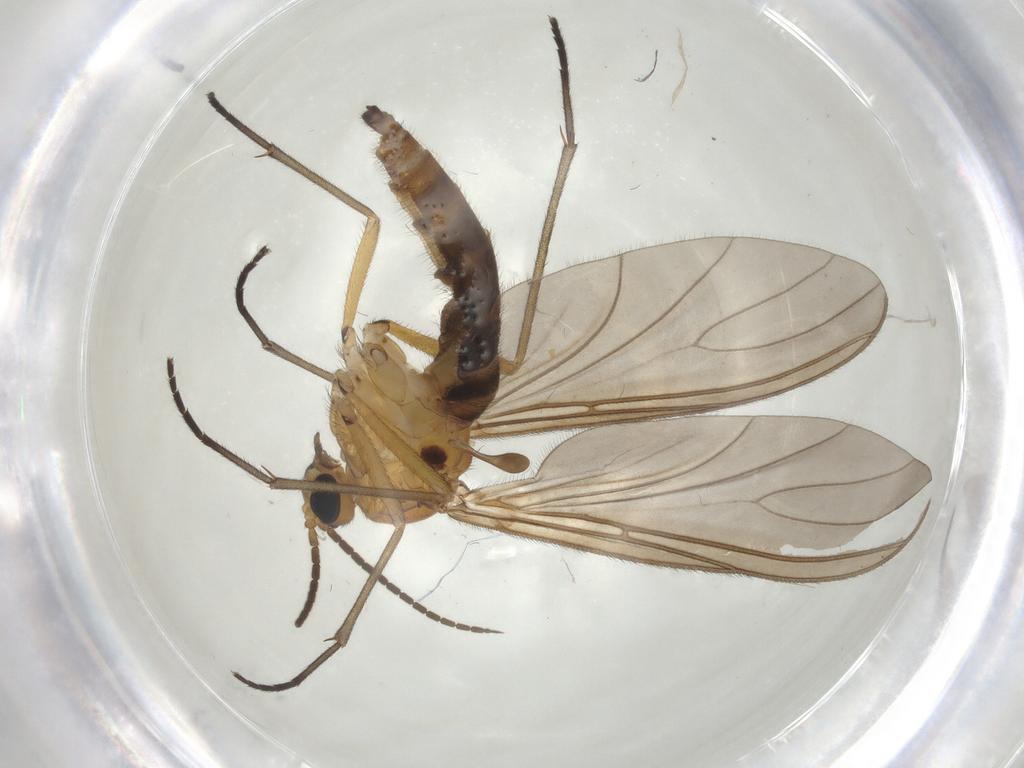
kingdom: Animalia
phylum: Arthropoda
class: Insecta
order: Diptera
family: Sciaridae
